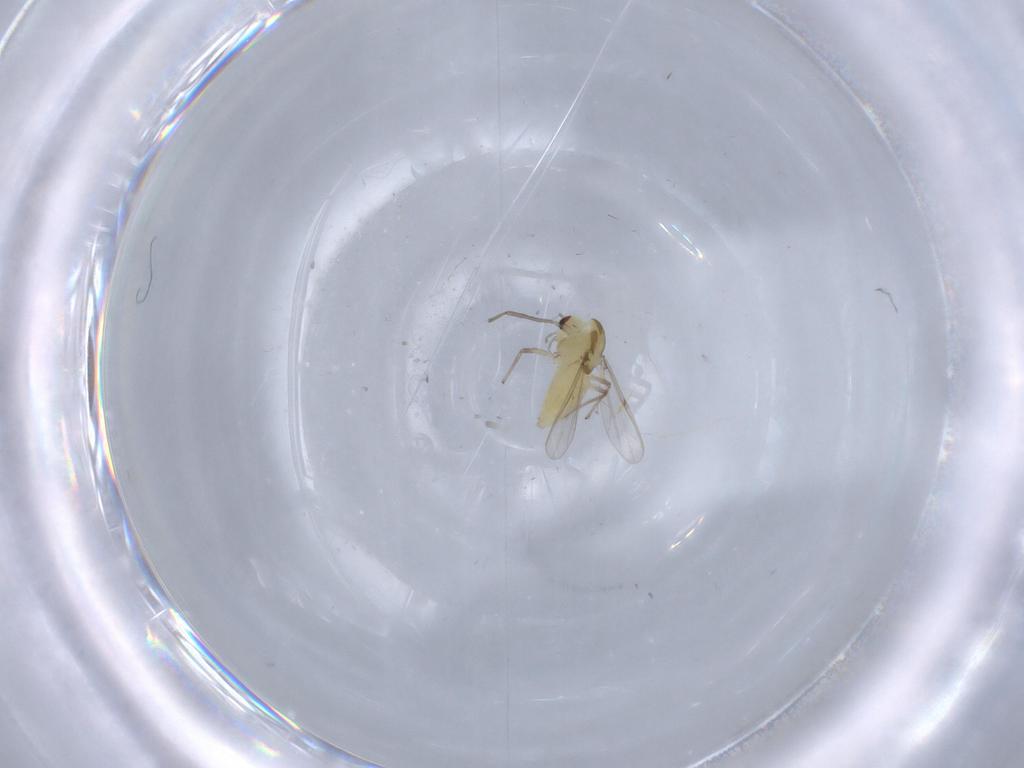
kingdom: Animalia
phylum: Arthropoda
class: Insecta
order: Diptera
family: Chironomidae
